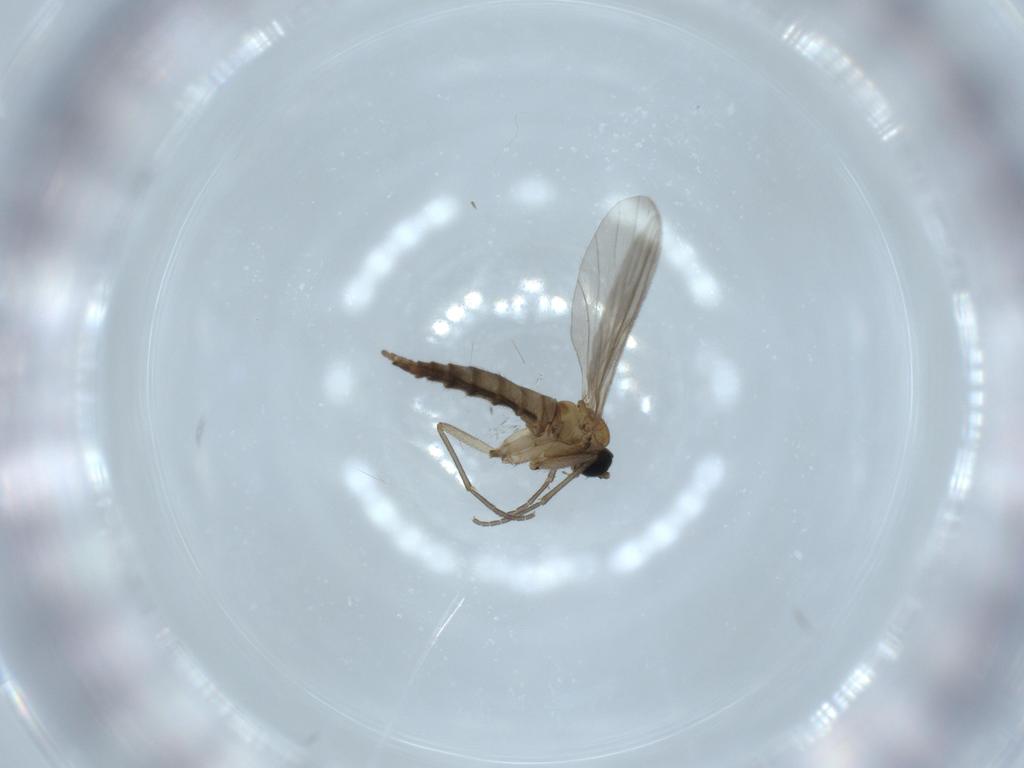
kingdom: Animalia
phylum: Arthropoda
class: Insecta
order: Diptera
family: Sciaridae
